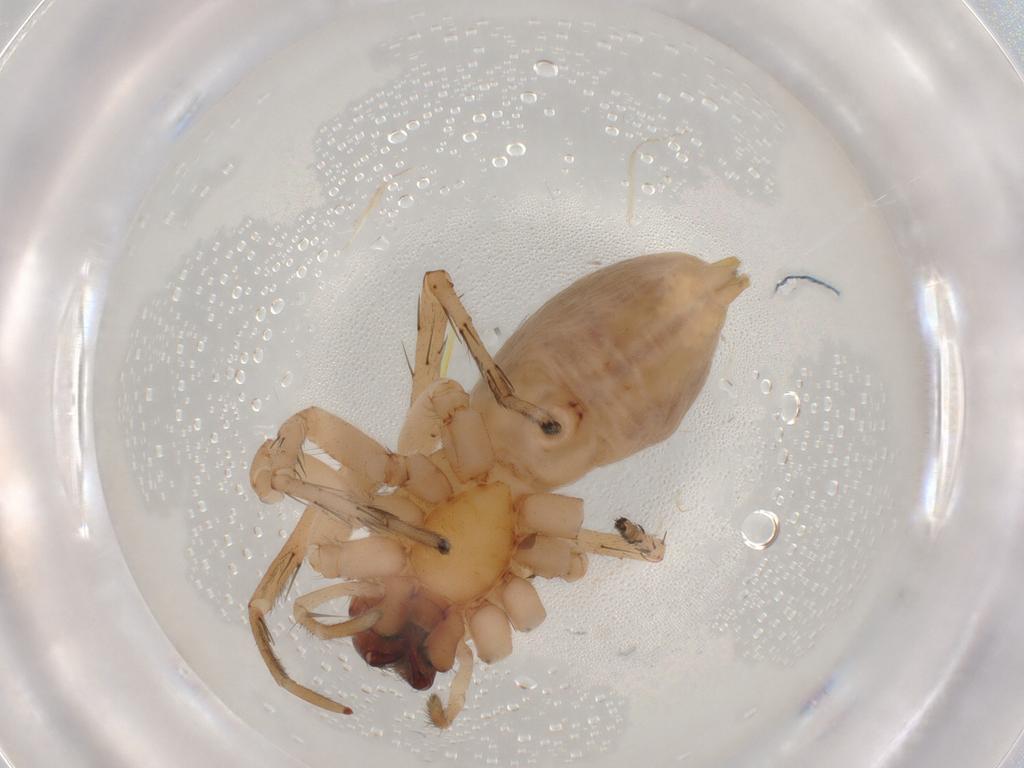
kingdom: Animalia
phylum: Arthropoda
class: Arachnida
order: Araneae
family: Anyphaenidae
